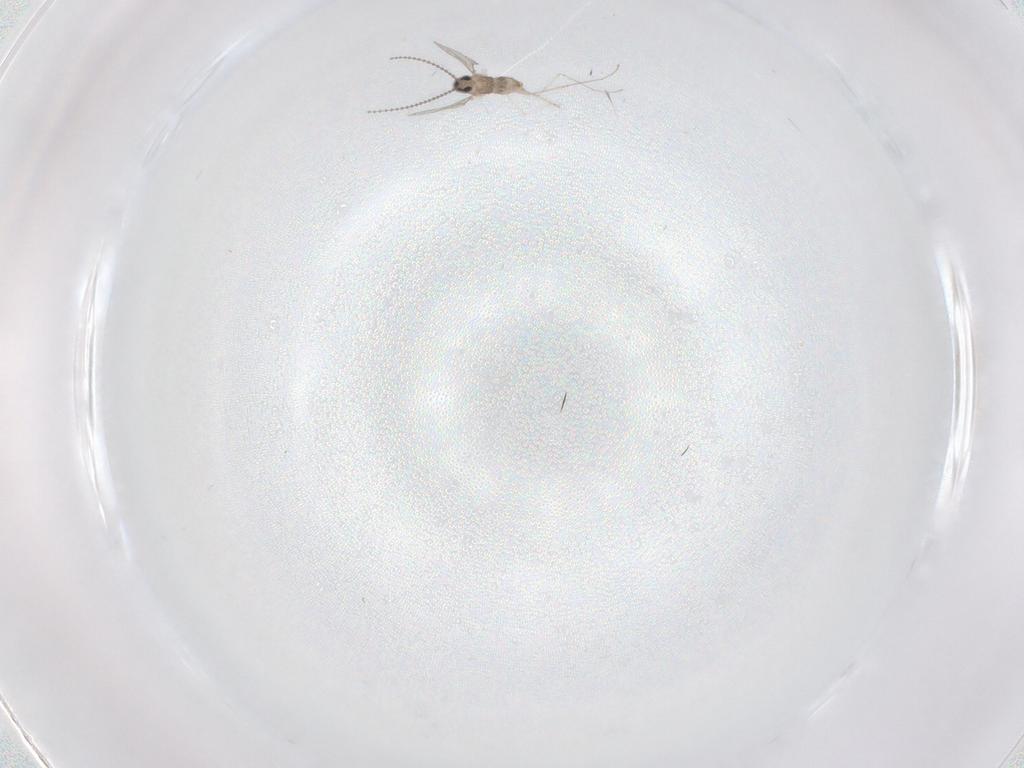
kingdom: Animalia
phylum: Arthropoda
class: Insecta
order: Diptera
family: Cecidomyiidae
